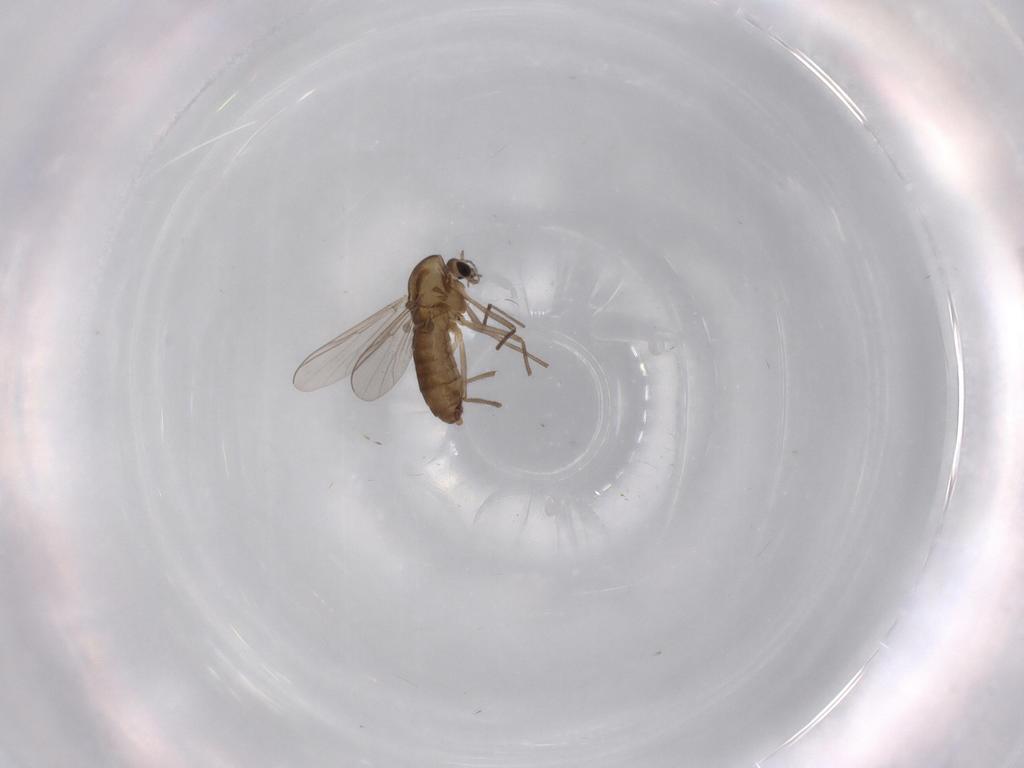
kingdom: Animalia
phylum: Arthropoda
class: Insecta
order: Diptera
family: Chironomidae
